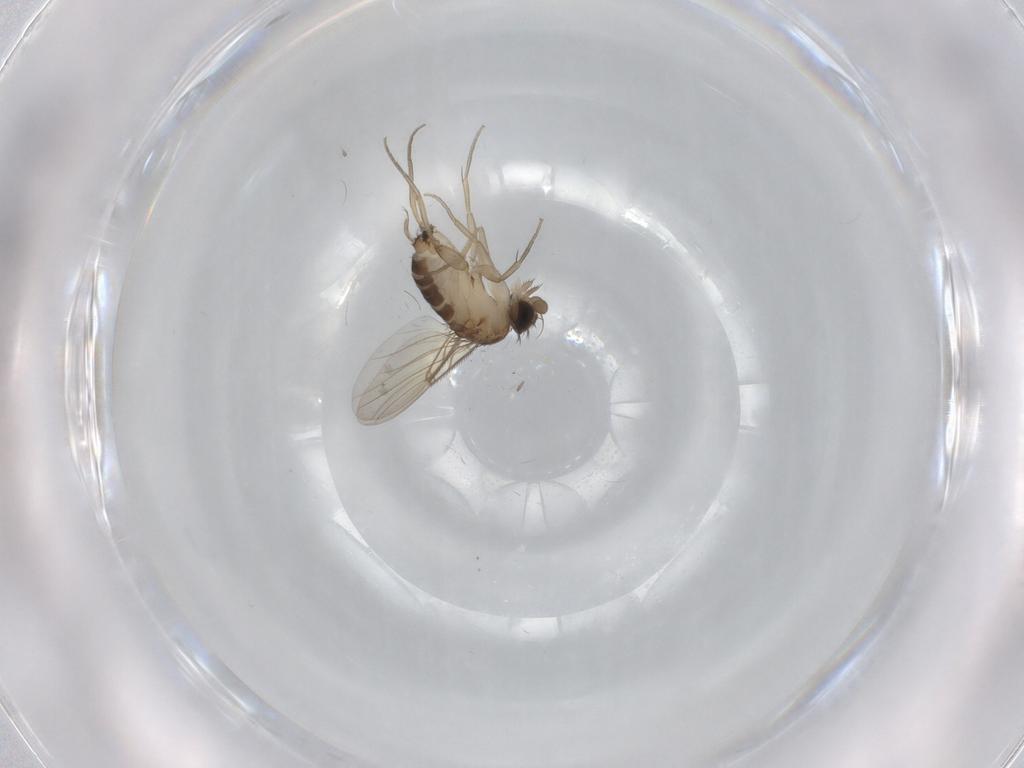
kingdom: Animalia
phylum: Arthropoda
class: Insecta
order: Diptera
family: Phoridae
